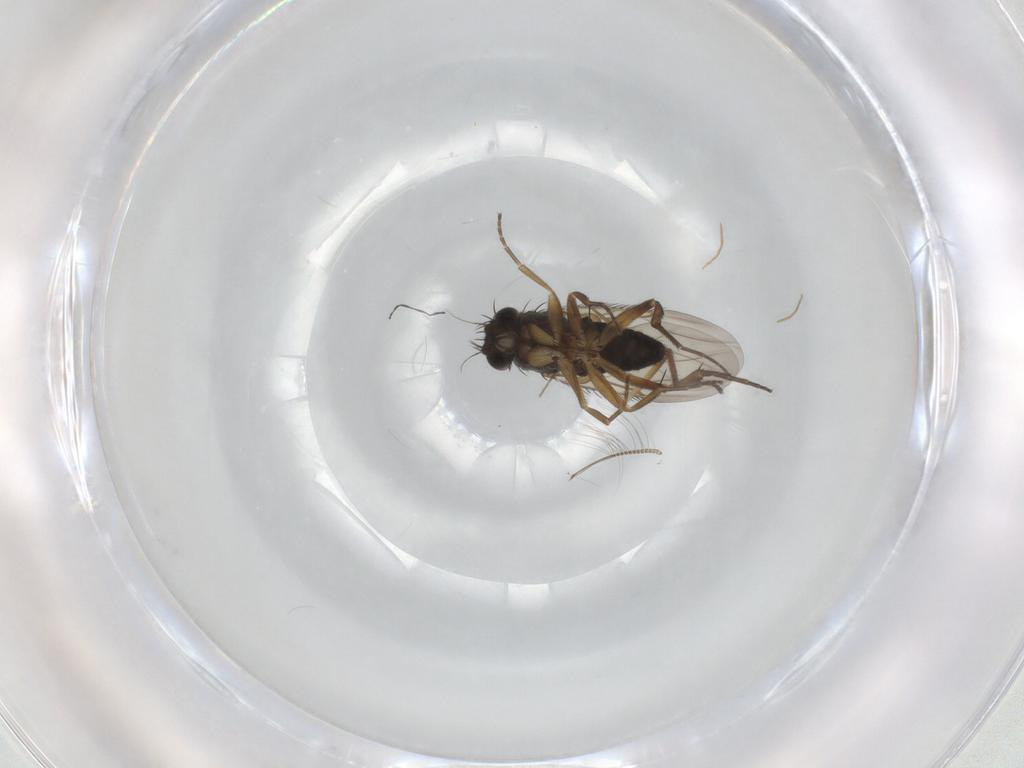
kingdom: Animalia
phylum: Arthropoda
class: Insecta
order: Diptera
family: Phoridae
